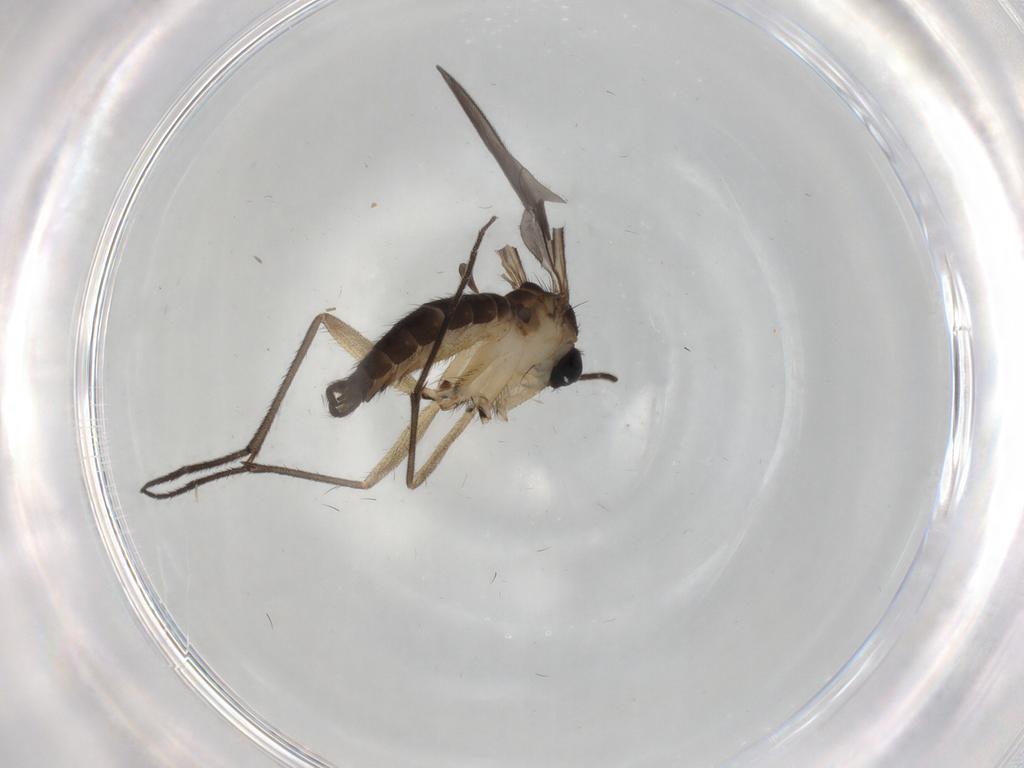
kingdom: Animalia
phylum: Arthropoda
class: Insecta
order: Diptera
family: Sciaridae
